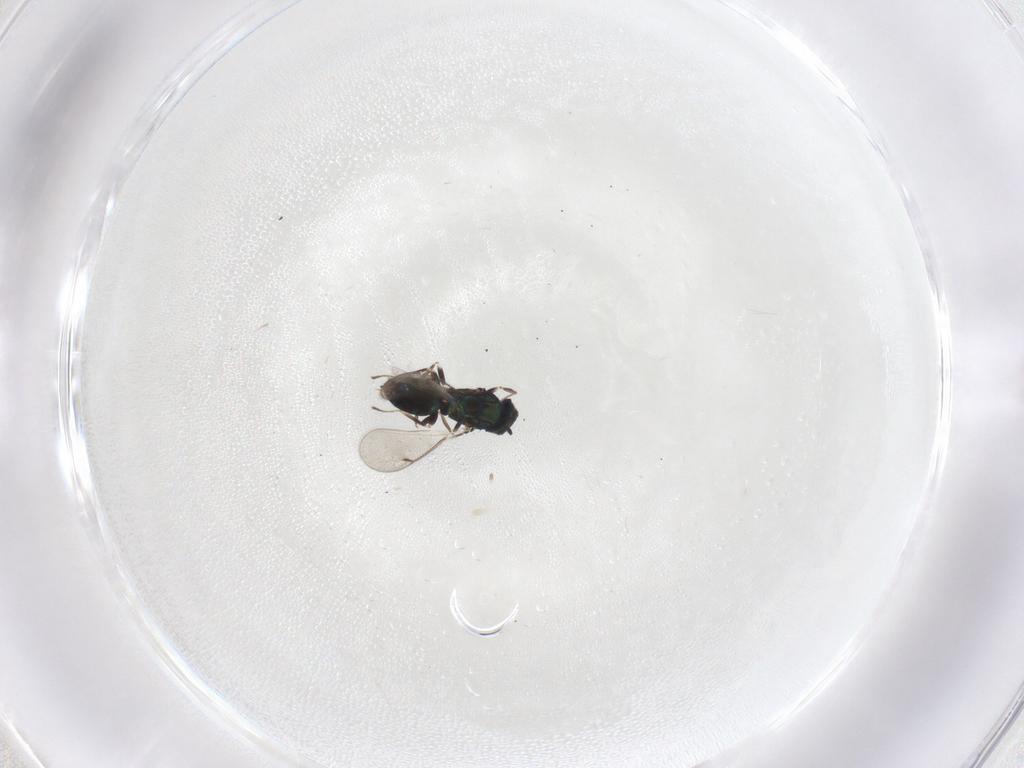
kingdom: Animalia
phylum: Arthropoda
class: Insecta
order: Hymenoptera
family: Eulophidae
